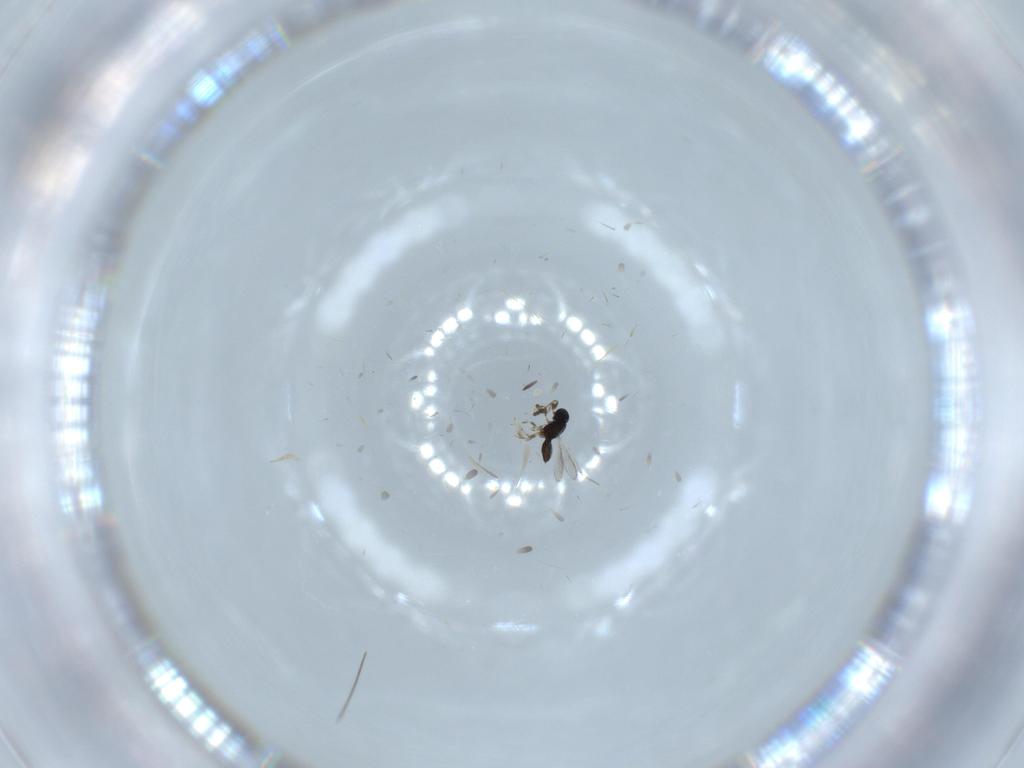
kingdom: Animalia
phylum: Arthropoda
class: Insecta
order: Hymenoptera
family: Scelionidae
